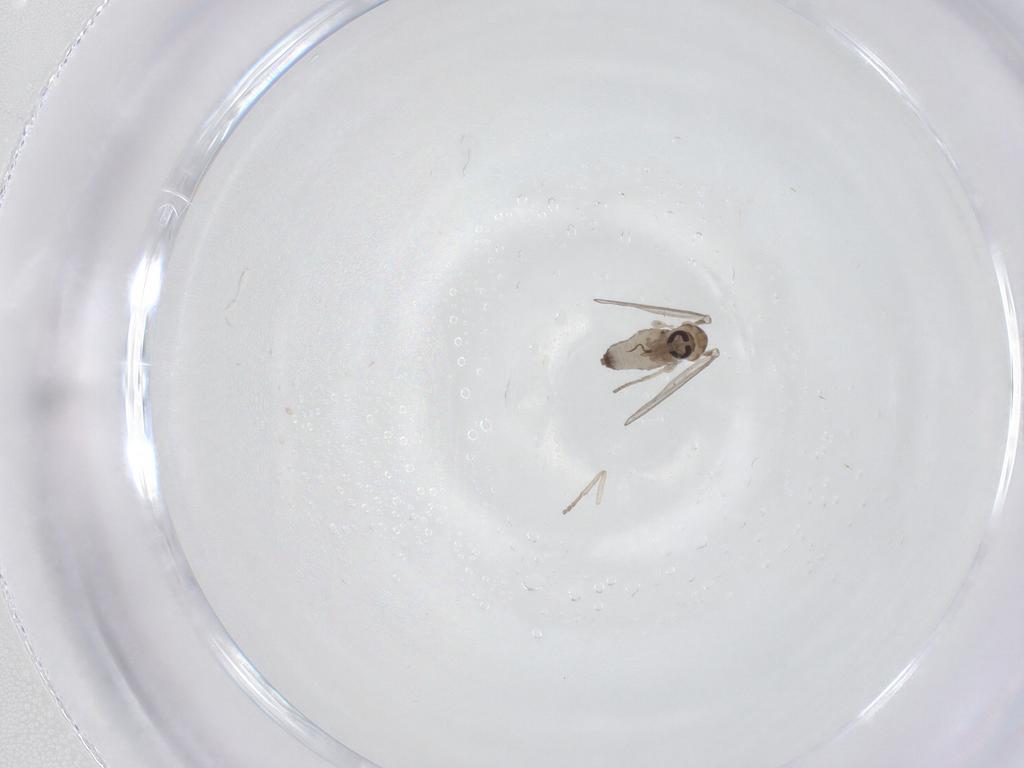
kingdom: Animalia
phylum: Arthropoda
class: Insecta
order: Diptera
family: Psychodidae
